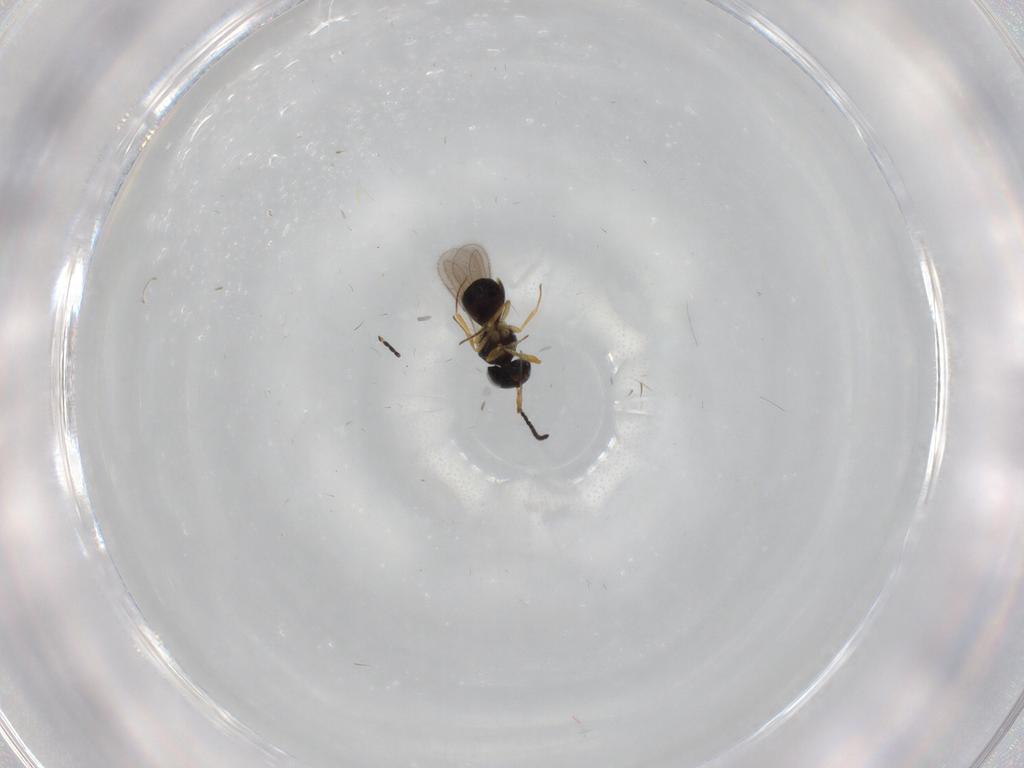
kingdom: Animalia
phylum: Arthropoda
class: Insecta
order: Hymenoptera
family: Scelionidae
